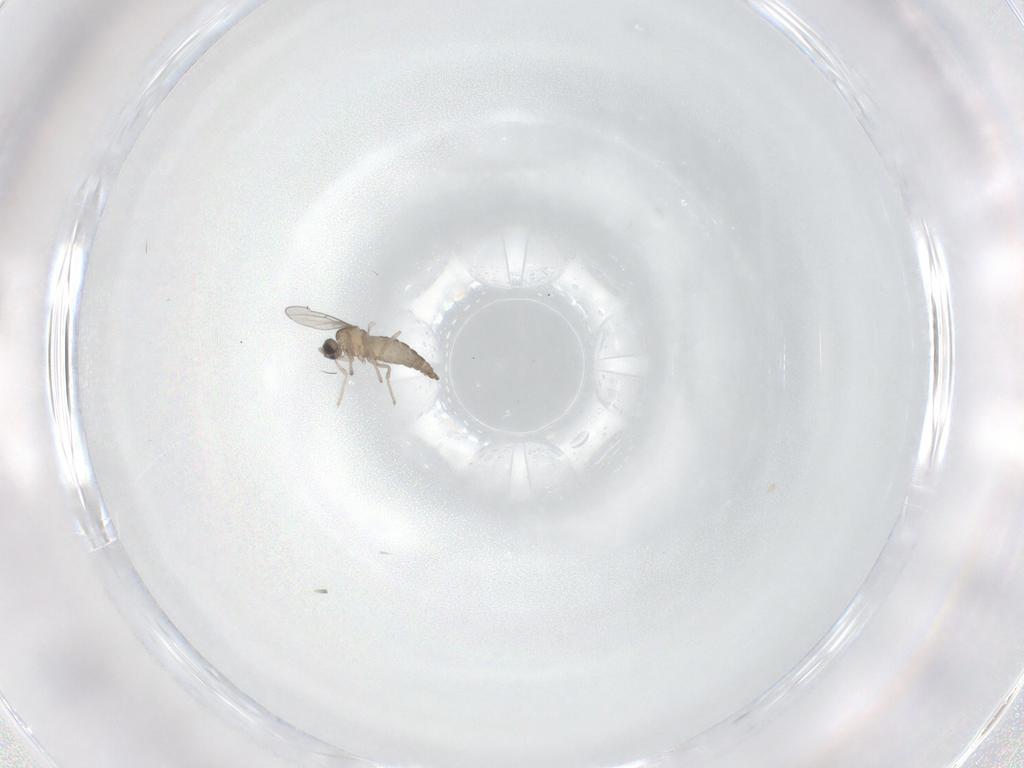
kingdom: Animalia
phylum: Arthropoda
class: Insecta
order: Diptera
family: Cecidomyiidae
